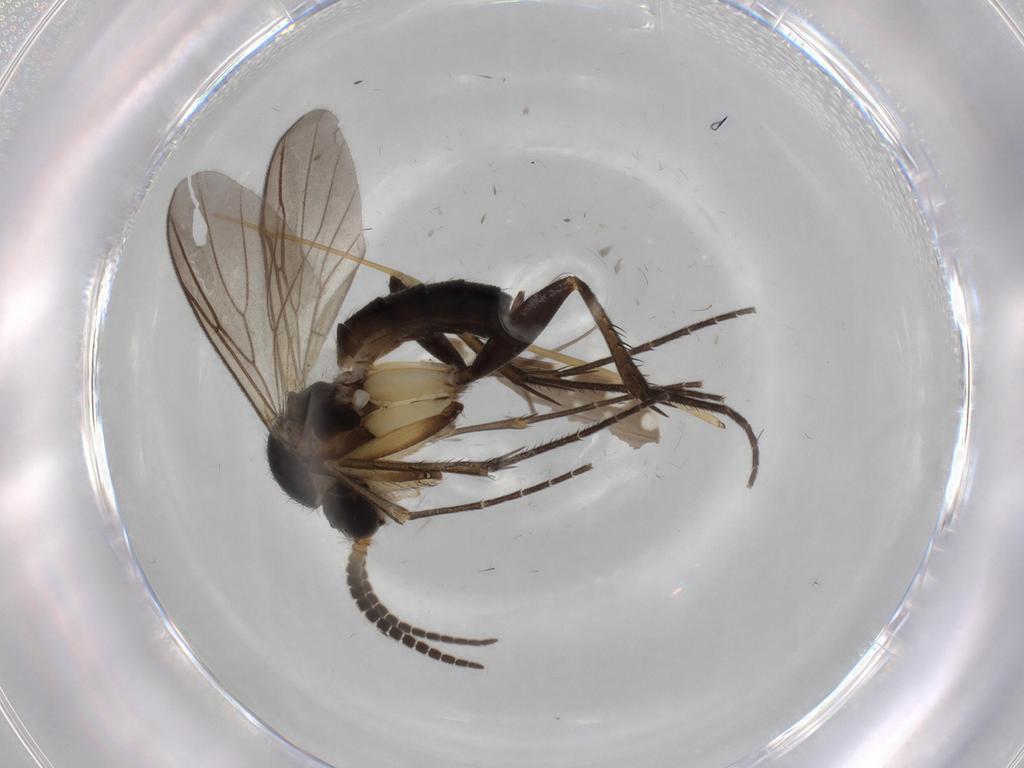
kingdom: Animalia
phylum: Arthropoda
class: Insecta
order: Diptera
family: Mycetophilidae
